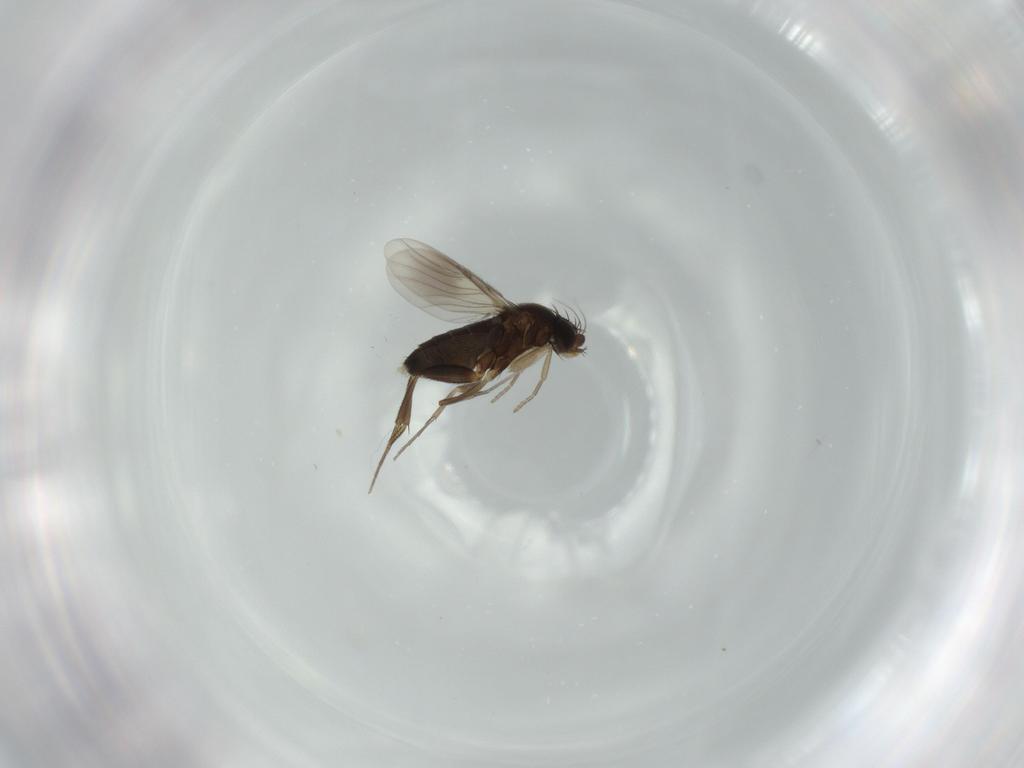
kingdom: Animalia
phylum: Arthropoda
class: Insecta
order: Diptera
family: Phoridae
